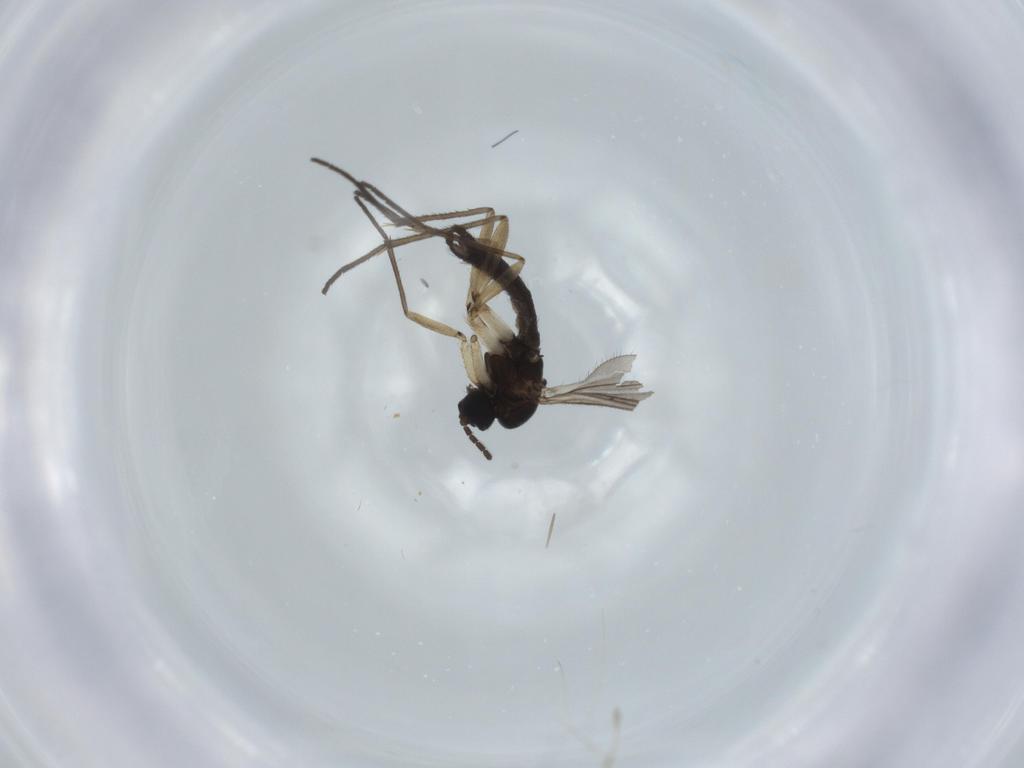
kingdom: Animalia
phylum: Arthropoda
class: Insecta
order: Diptera
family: Sciaridae
